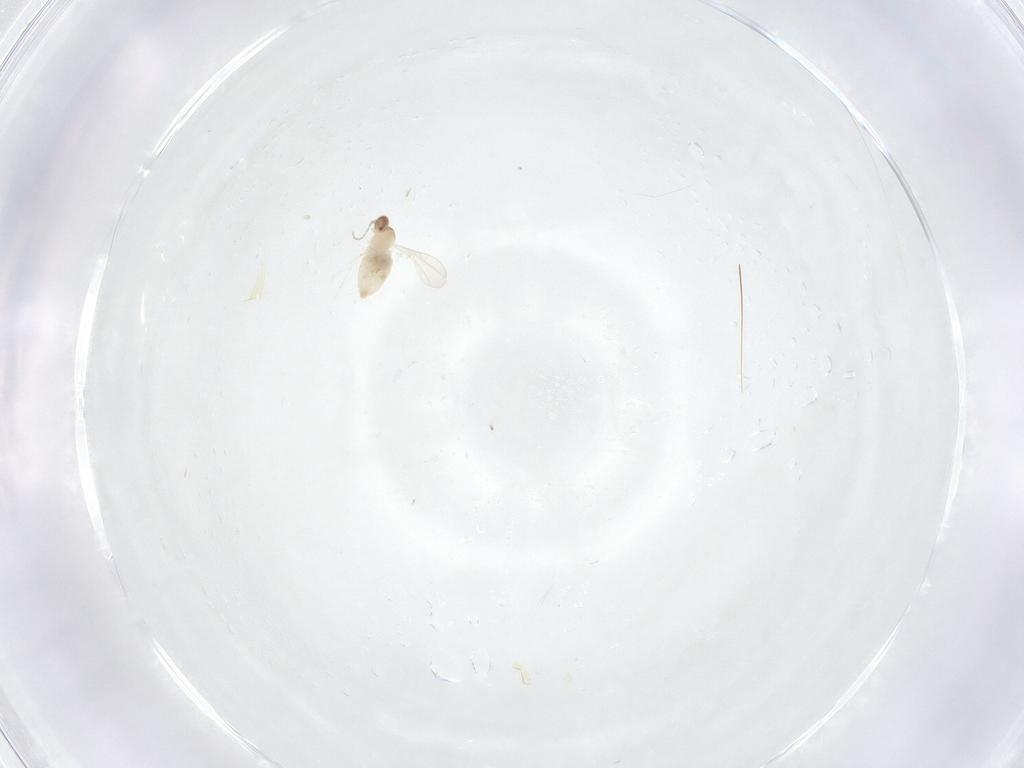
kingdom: Animalia
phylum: Arthropoda
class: Insecta
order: Diptera
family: Cecidomyiidae
